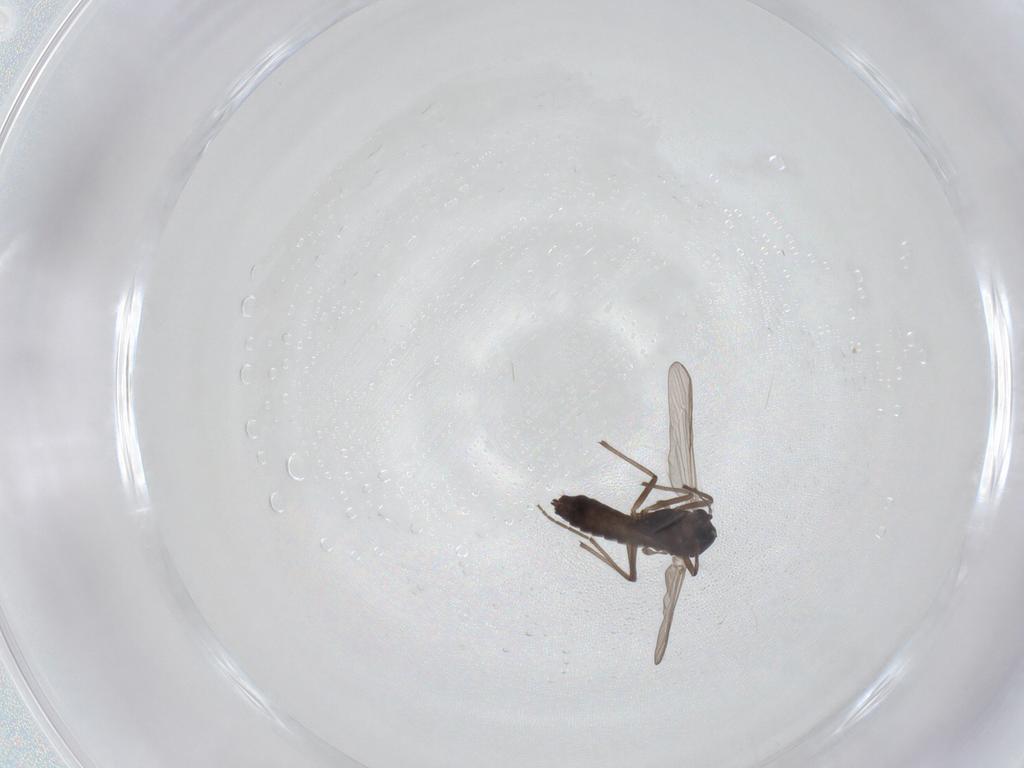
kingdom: Animalia
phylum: Arthropoda
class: Insecta
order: Diptera
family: Chironomidae
